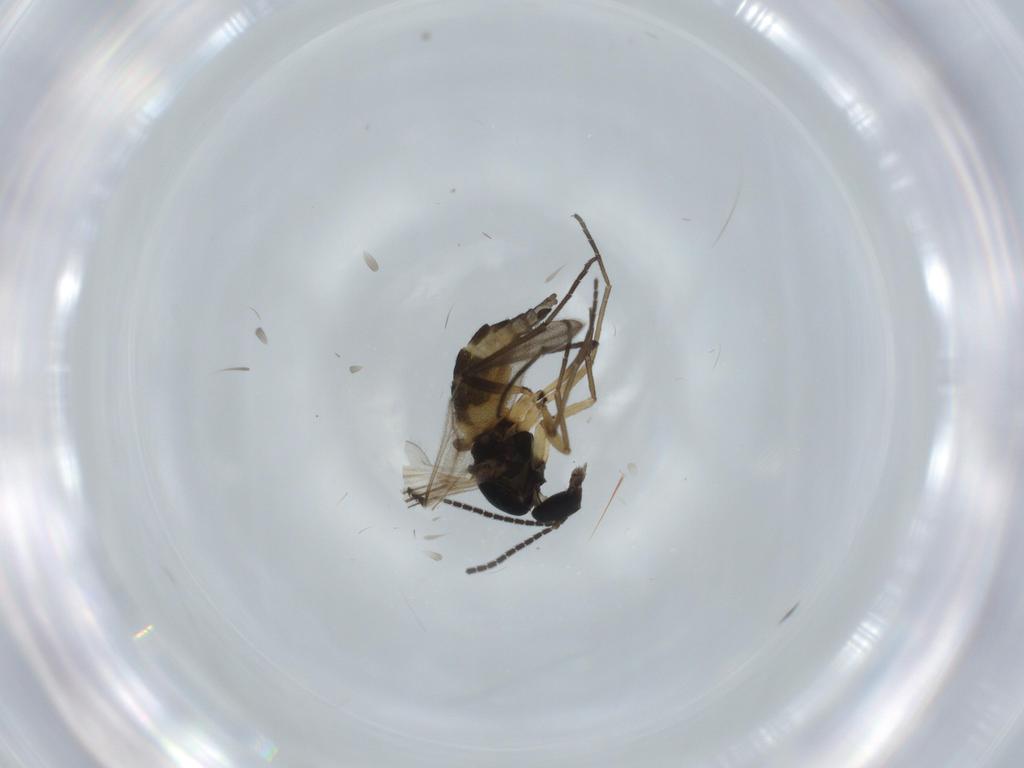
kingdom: Animalia
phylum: Arthropoda
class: Insecta
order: Diptera
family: Sciaridae
